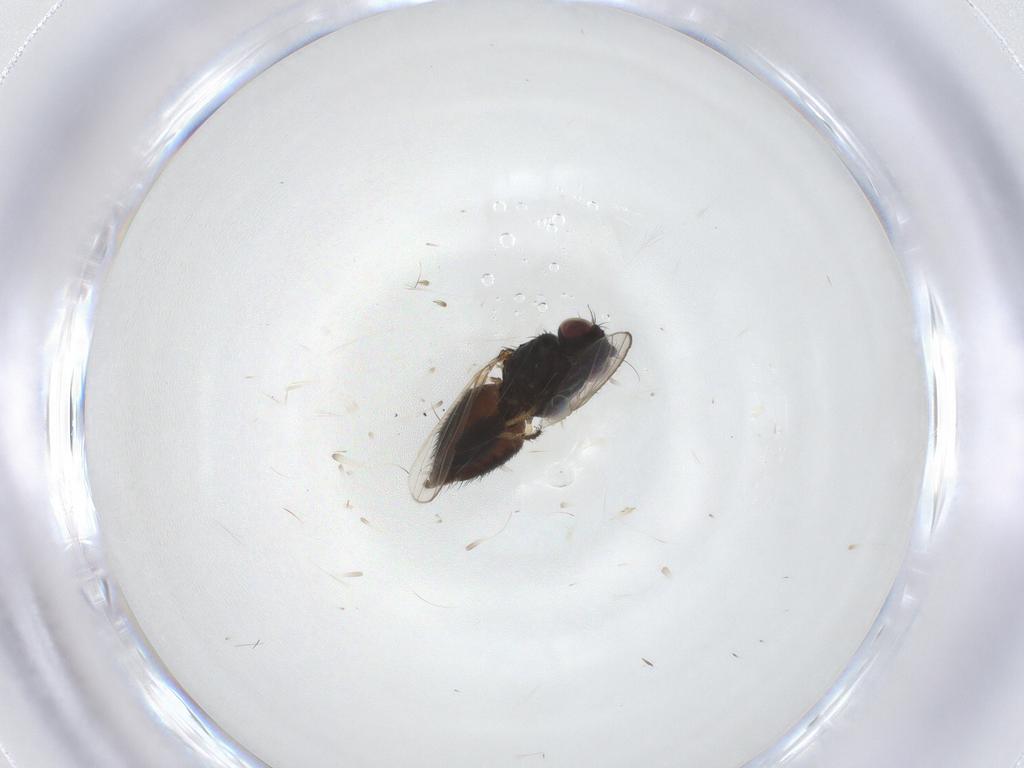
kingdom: Animalia
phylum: Arthropoda
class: Insecta
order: Diptera
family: Milichiidae
